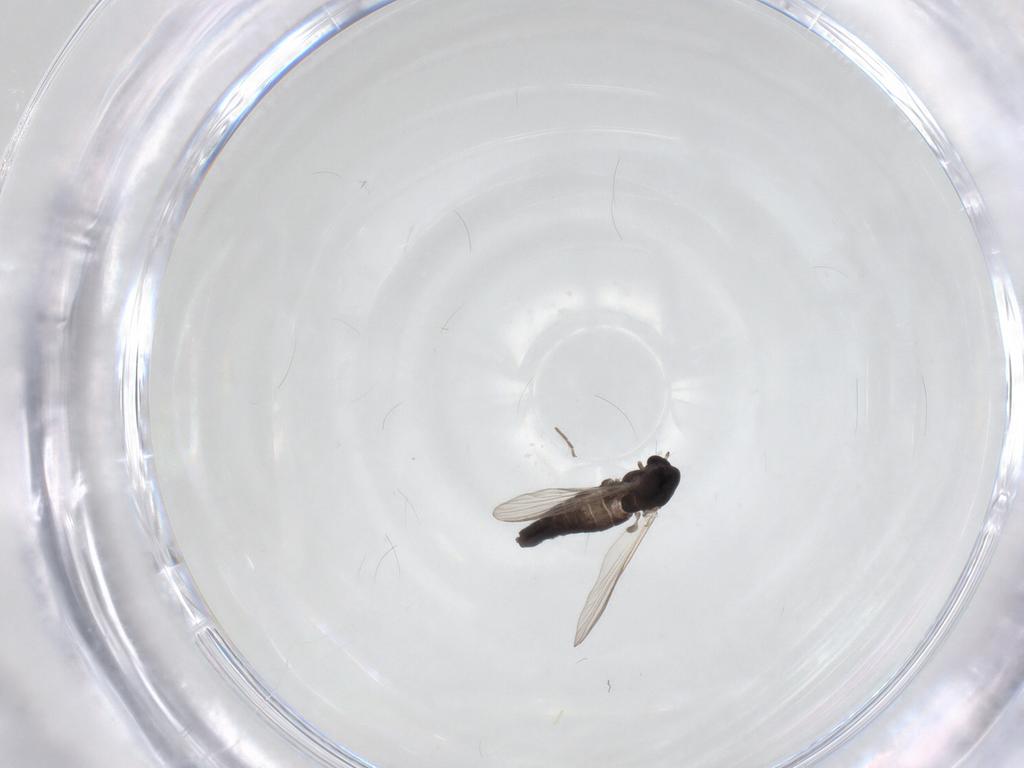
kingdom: Animalia
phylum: Arthropoda
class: Insecta
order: Diptera
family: Chironomidae
